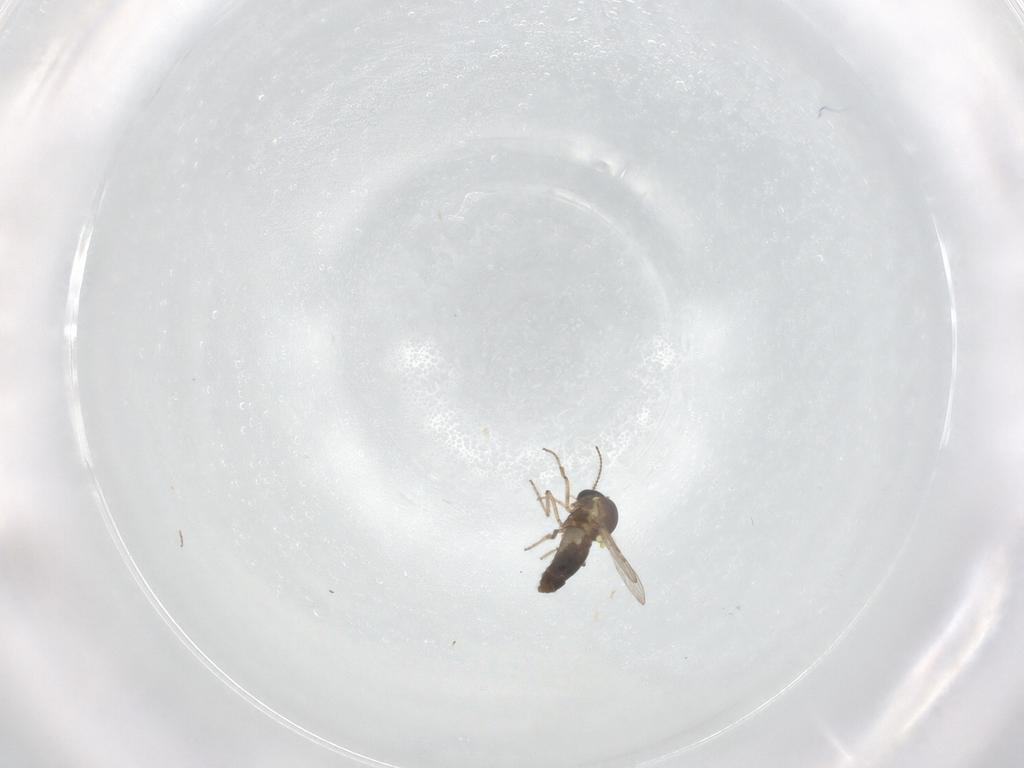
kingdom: Animalia
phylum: Arthropoda
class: Insecta
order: Diptera
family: Ceratopogonidae
